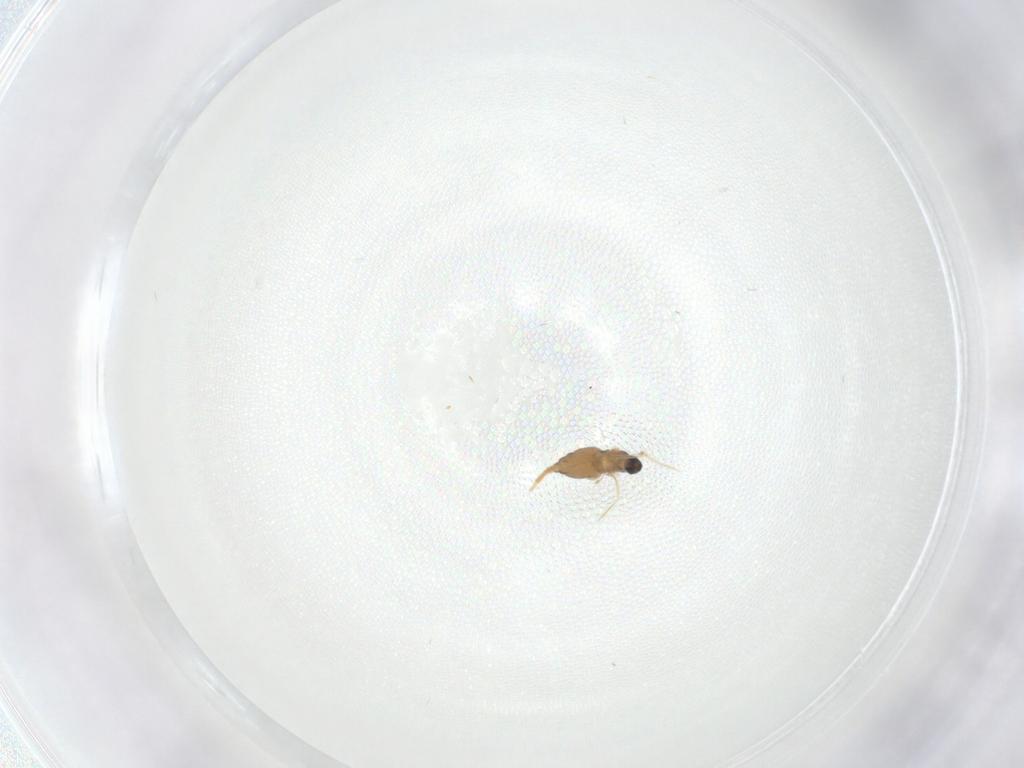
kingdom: Animalia
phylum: Arthropoda
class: Insecta
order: Diptera
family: Cecidomyiidae
